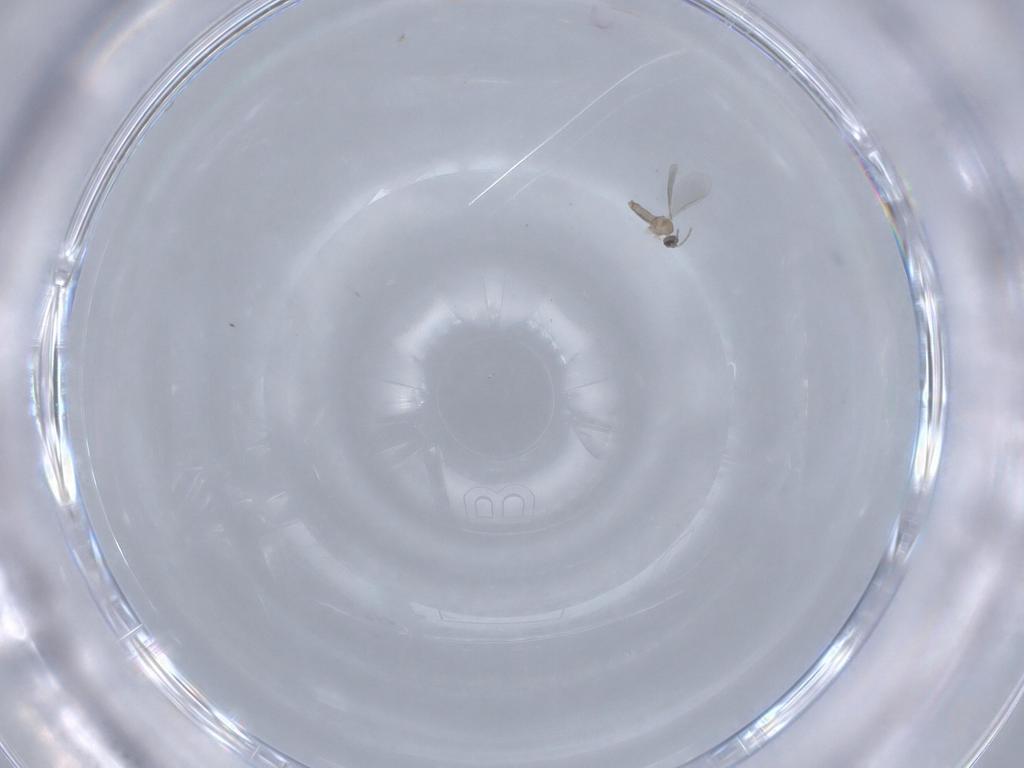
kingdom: Animalia
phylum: Arthropoda
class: Insecta
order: Diptera
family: Cecidomyiidae
